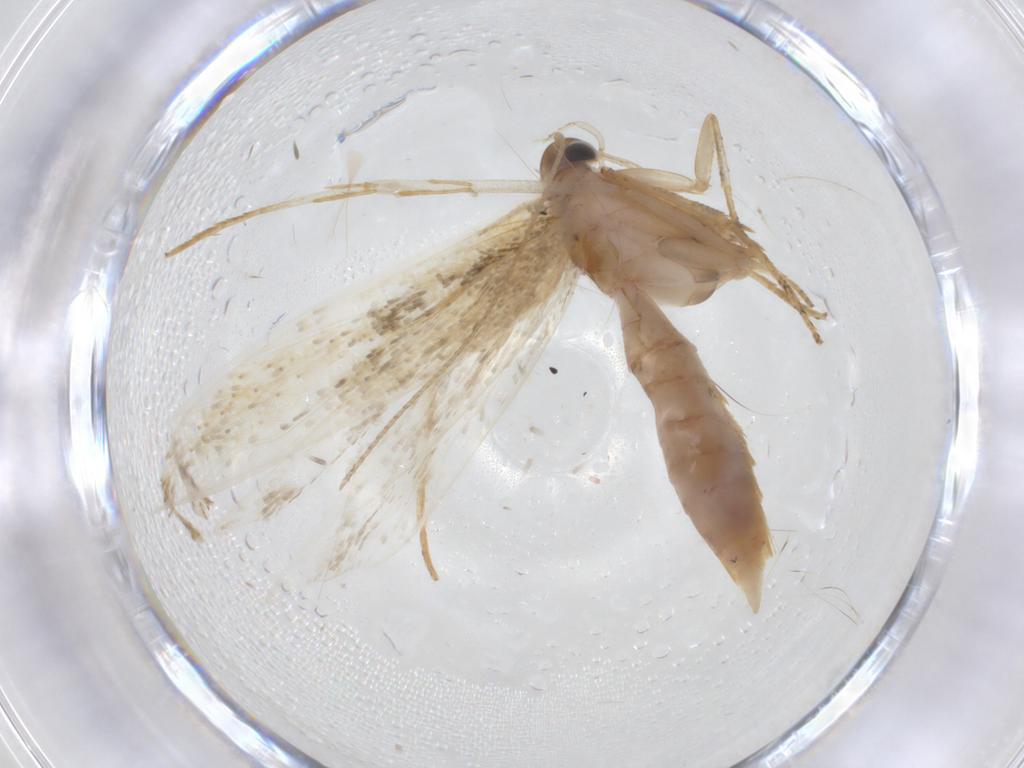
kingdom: Animalia
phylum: Arthropoda
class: Insecta
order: Lepidoptera
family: Crambidae
